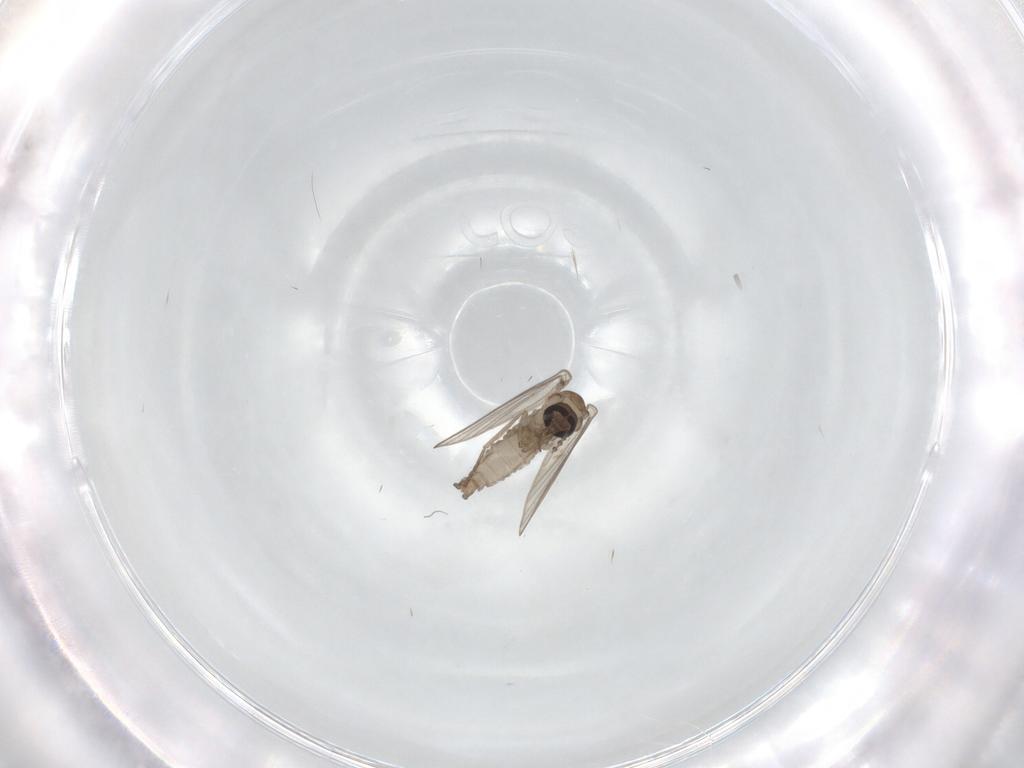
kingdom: Animalia
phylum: Arthropoda
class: Insecta
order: Diptera
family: Psychodidae
